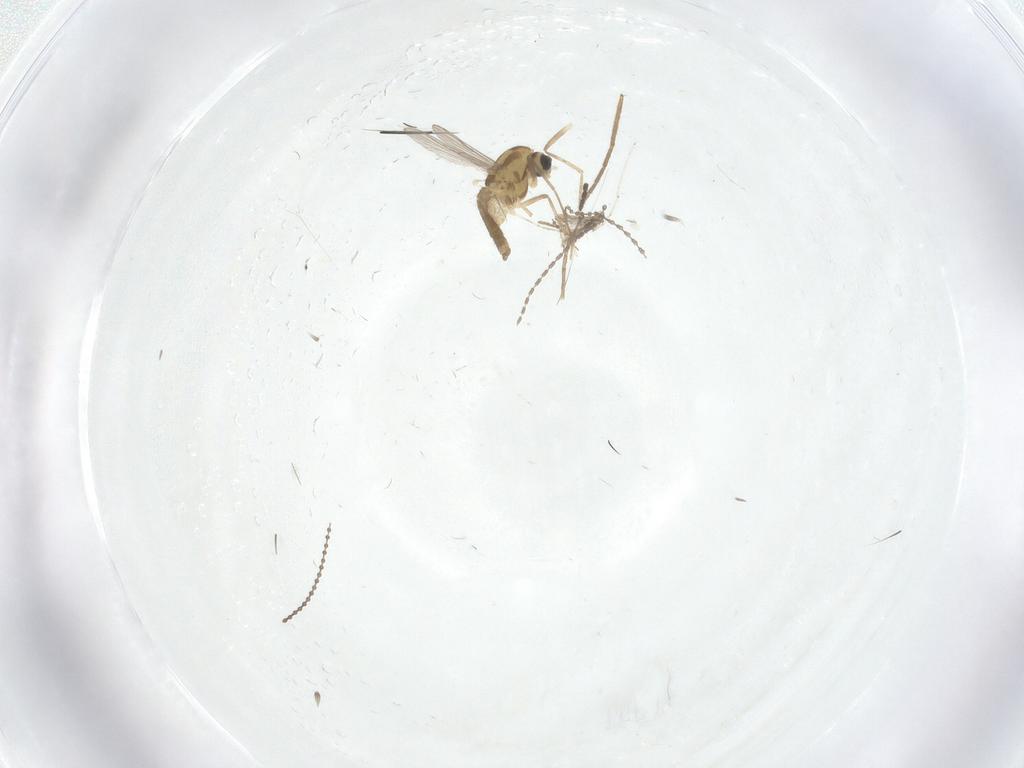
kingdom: Animalia
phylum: Arthropoda
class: Insecta
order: Diptera
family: Chironomidae
